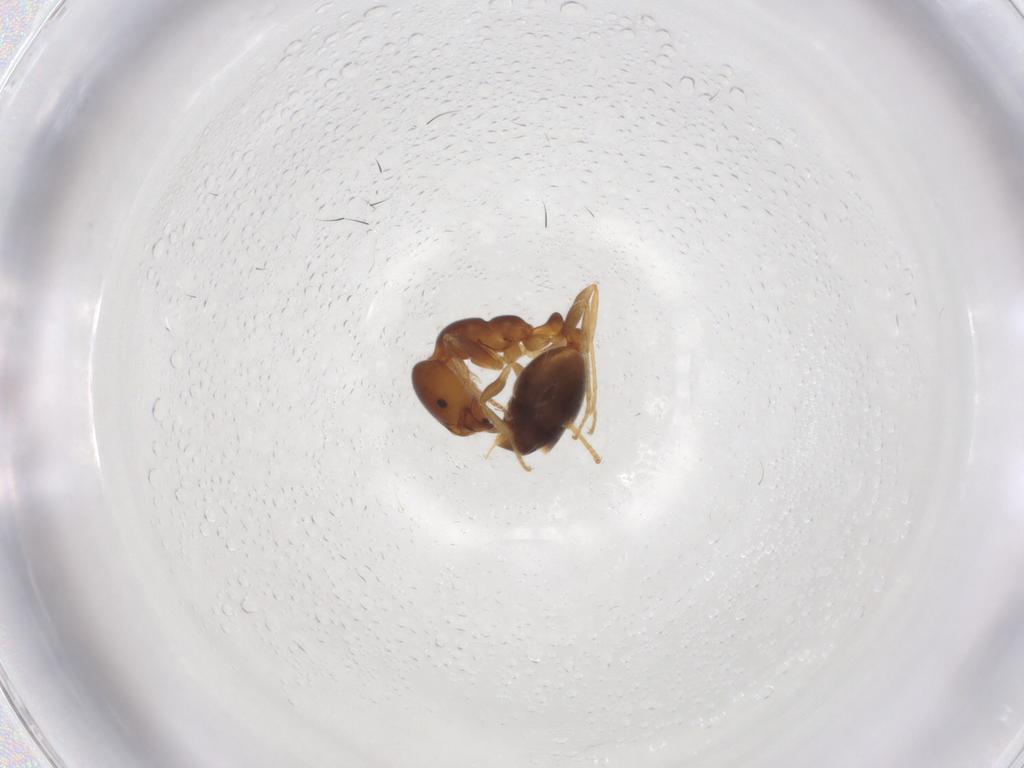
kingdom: Animalia
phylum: Arthropoda
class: Insecta
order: Hymenoptera
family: Formicidae
